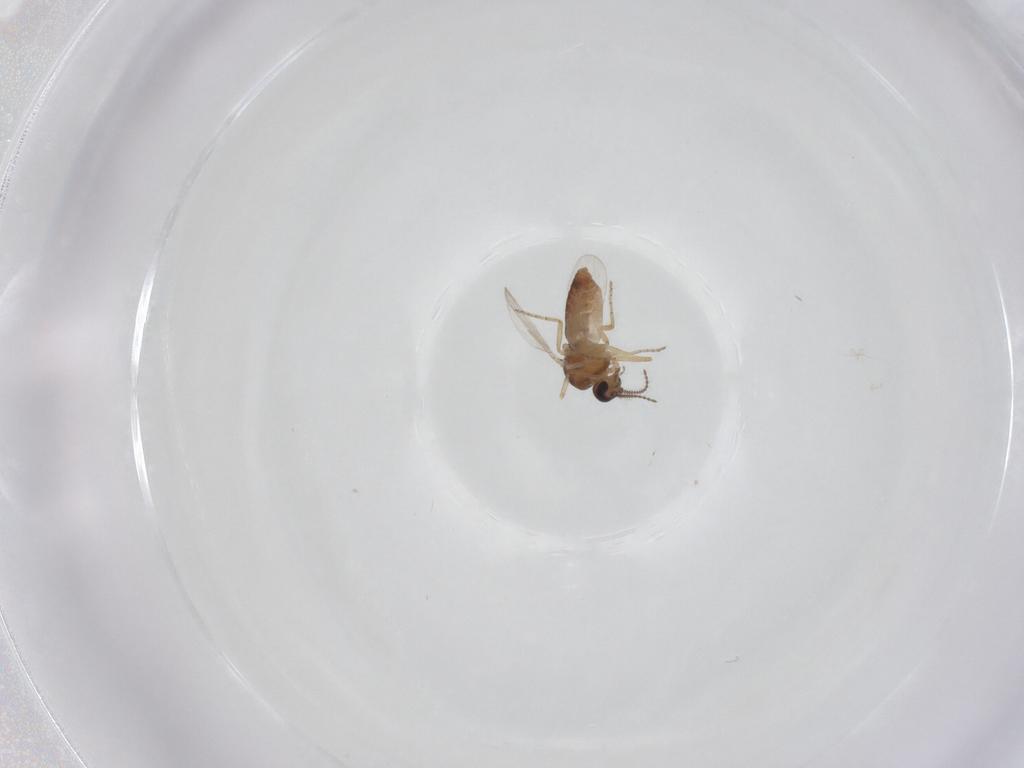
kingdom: Animalia
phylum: Arthropoda
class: Insecta
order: Diptera
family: Ceratopogonidae
